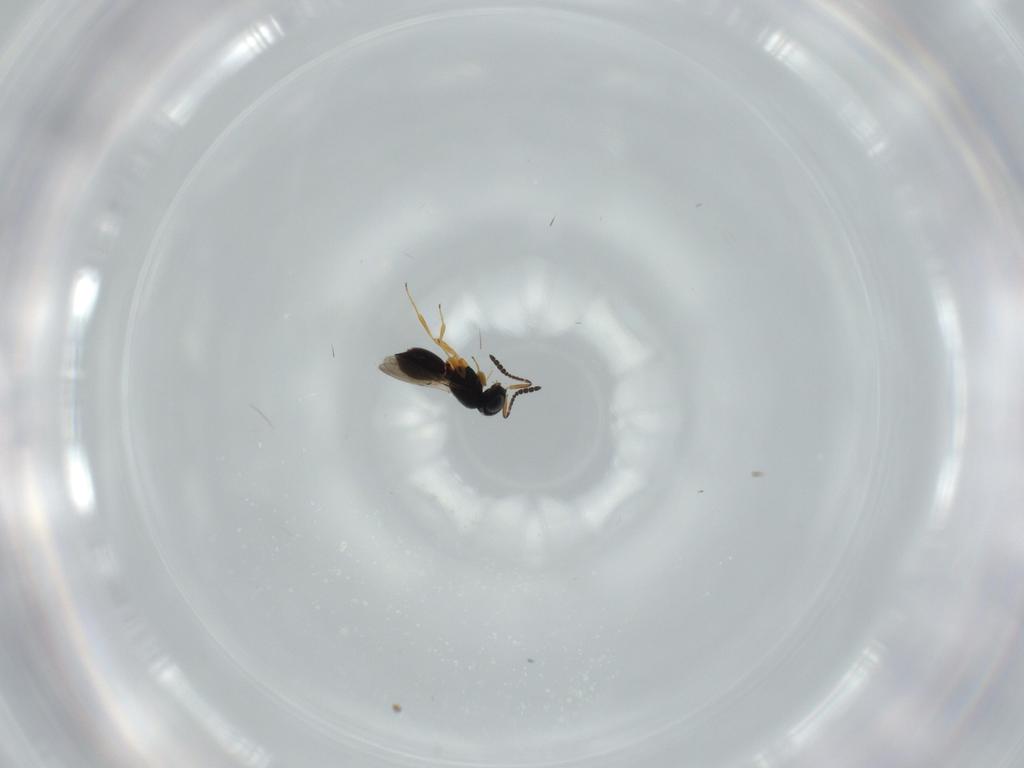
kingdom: Animalia
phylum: Arthropoda
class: Insecta
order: Hymenoptera
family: Scelionidae
